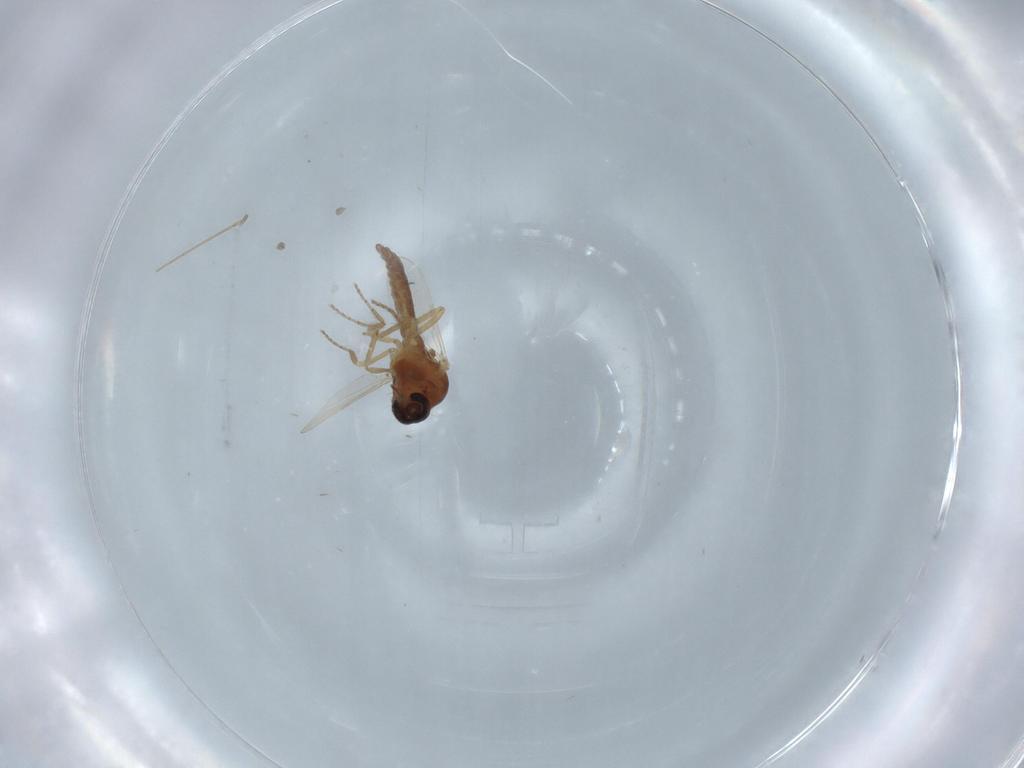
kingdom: Animalia
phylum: Arthropoda
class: Insecta
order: Diptera
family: Ceratopogonidae
